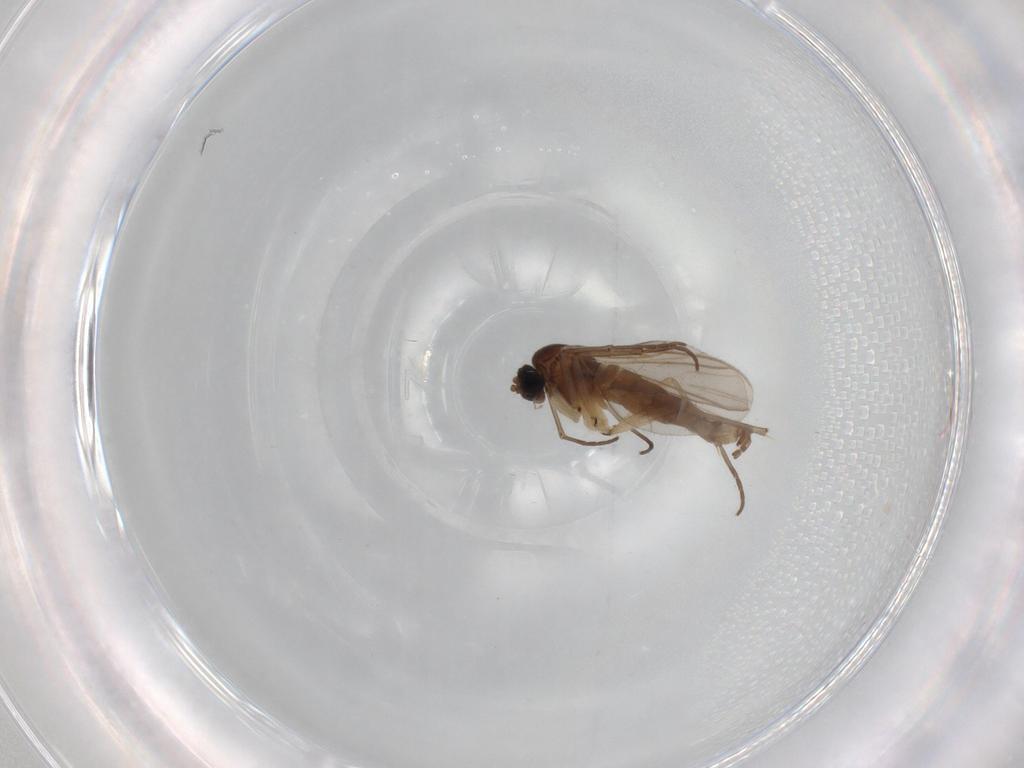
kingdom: Animalia
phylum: Arthropoda
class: Insecta
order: Diptera
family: Sciaridae
